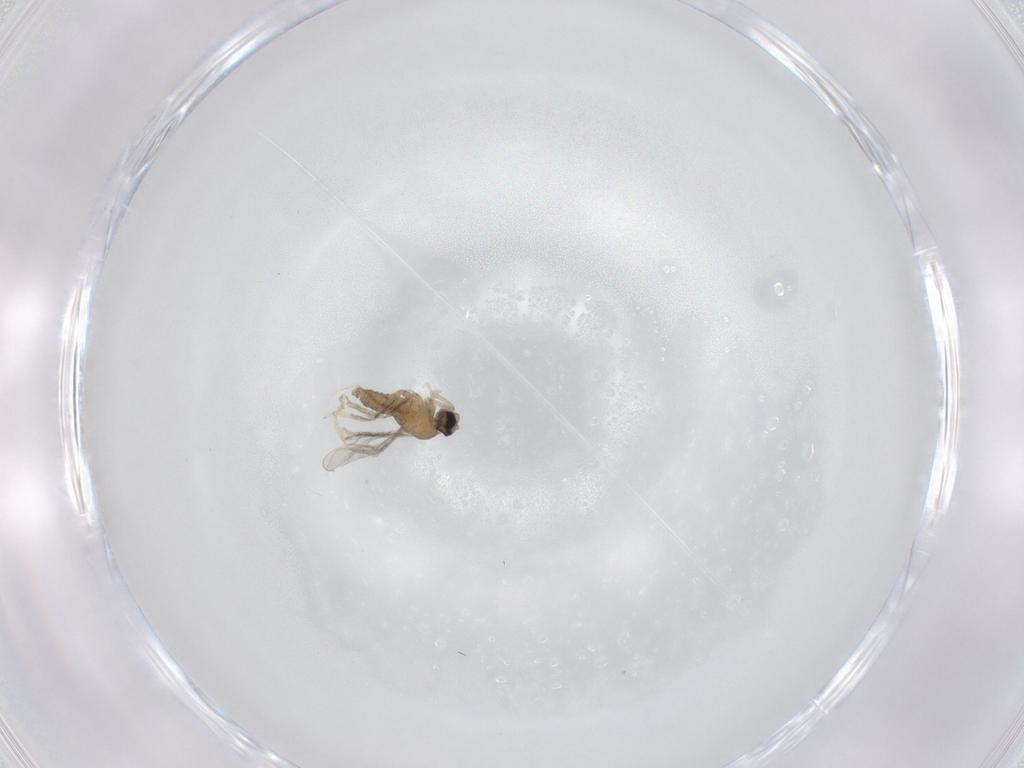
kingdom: Animalia
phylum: Arthropoda
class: Insecta
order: Diptera
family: Cecidomyiidae
